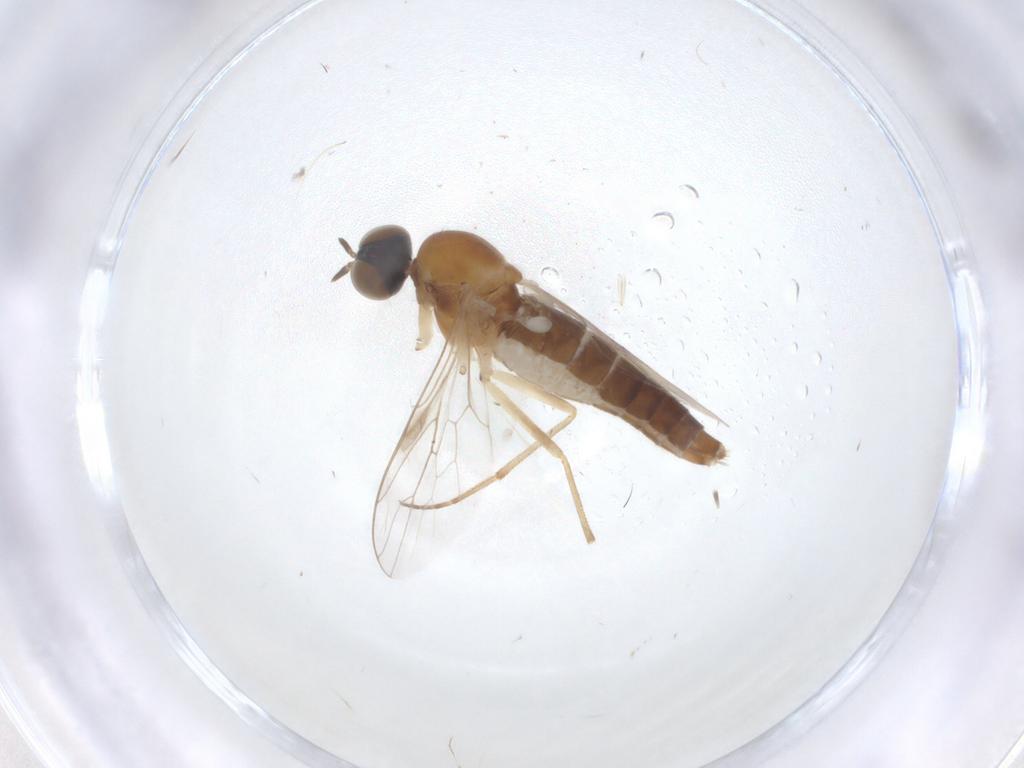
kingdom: Animalia
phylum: Arthropoda
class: Insecta
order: Diptera
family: Scenopinidae
